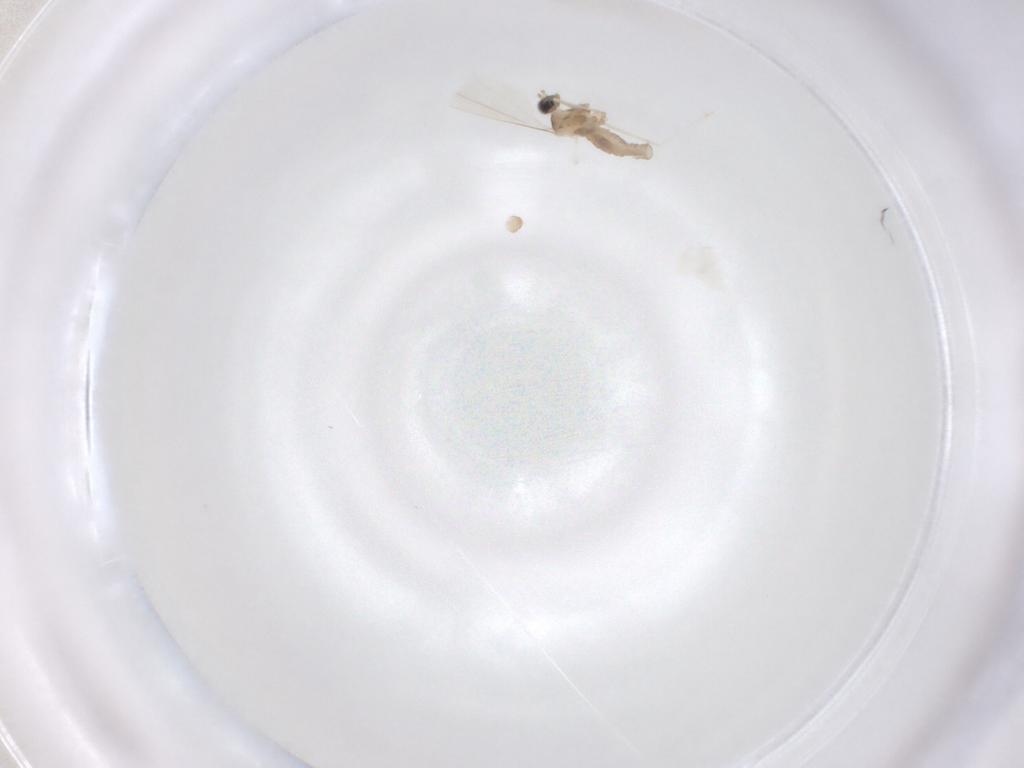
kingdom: Animalia
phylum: Arthropoda
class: Insecta
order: Diptera
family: Cecidomyiidae
